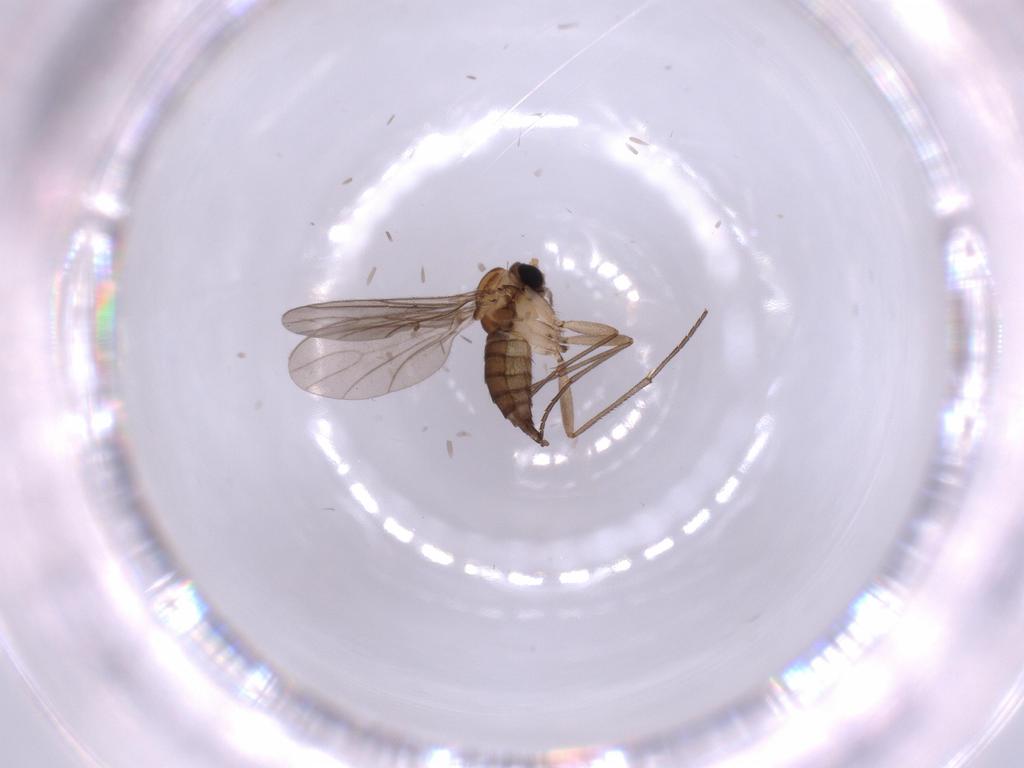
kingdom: Animalia
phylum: Arthropoda
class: Insecta
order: Diptera
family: Sciaridae
